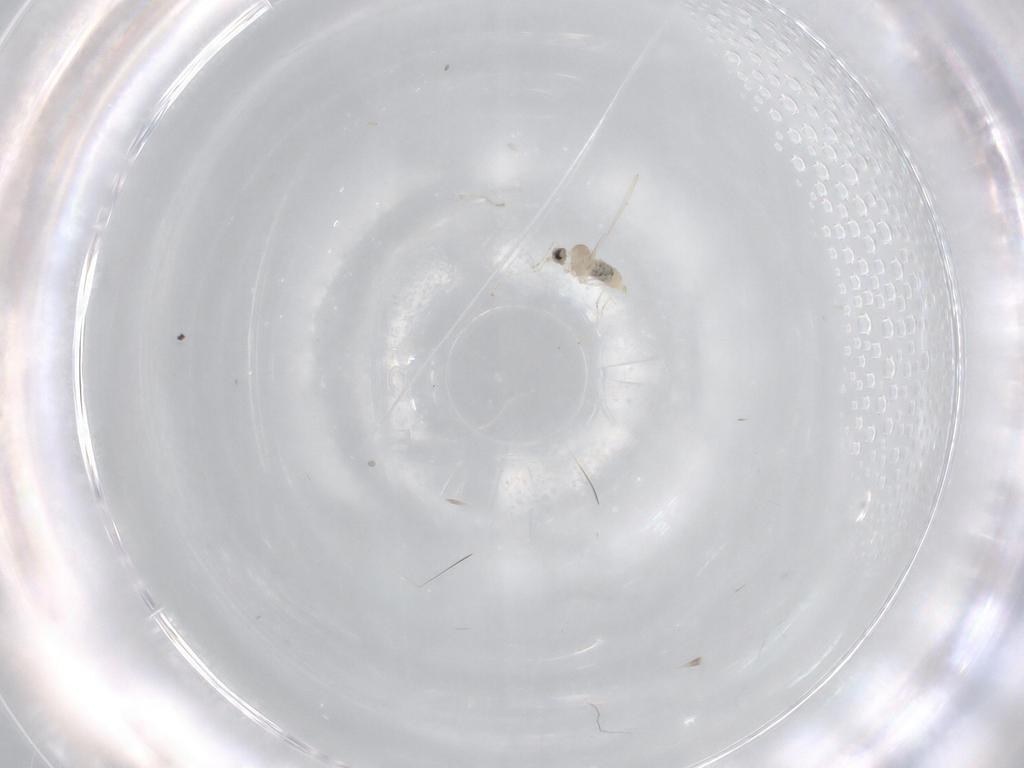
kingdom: Animalia
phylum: Arthropoda
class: Insecta
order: Diptera
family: Cecidomyiidae
